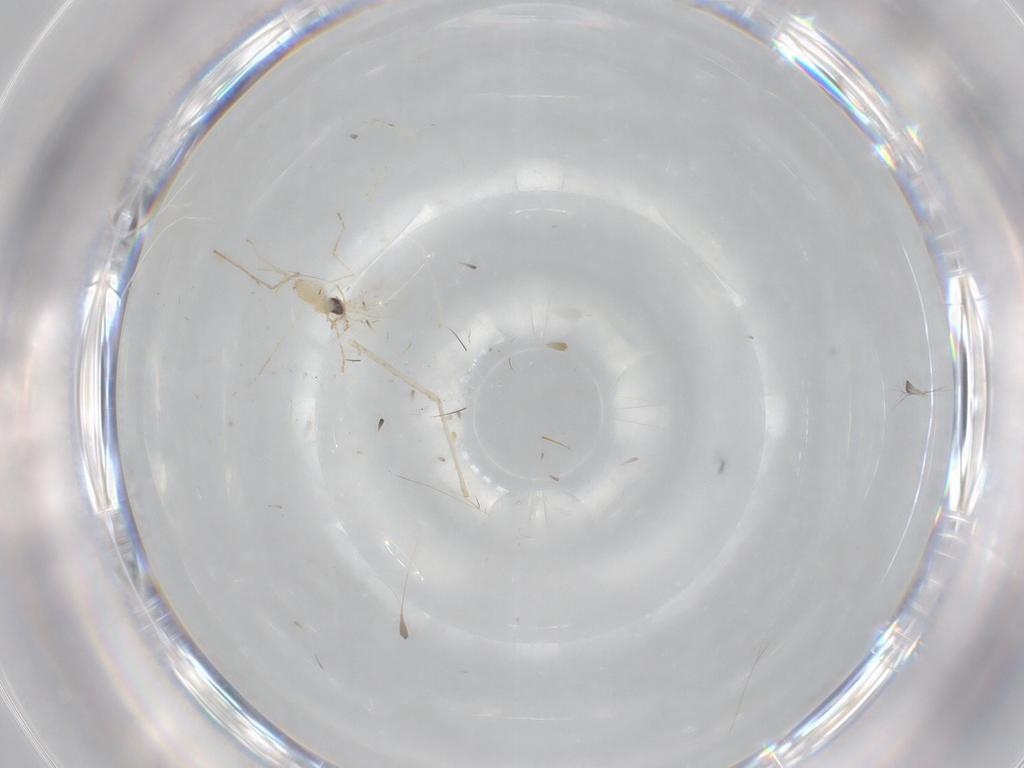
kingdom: Animalia
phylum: Arthropoda
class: Insecta
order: Diptera
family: Cecidomyiidae
